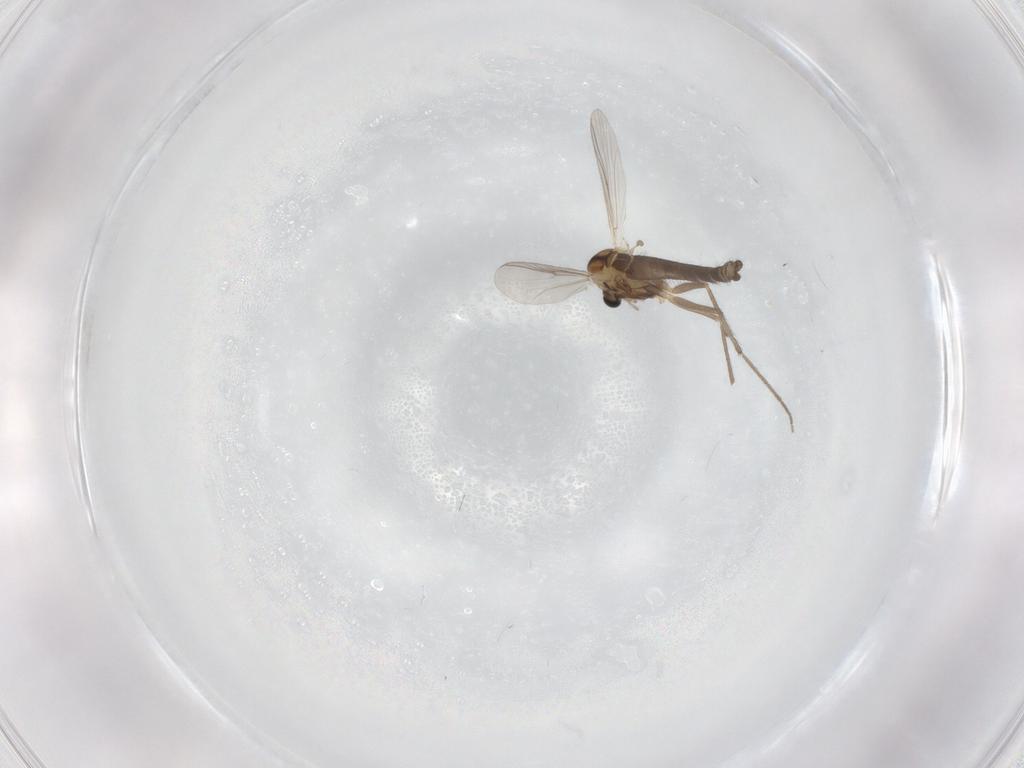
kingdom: Animalia
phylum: Arthropoda
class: Insecta
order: Diptera
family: Chironomidae
